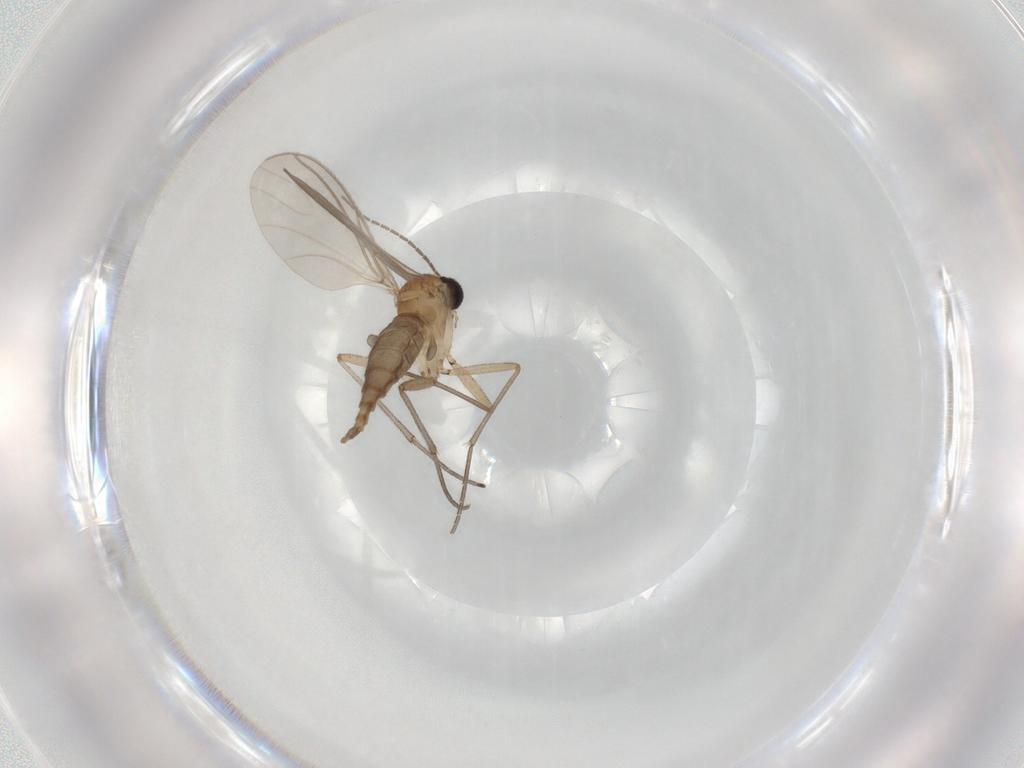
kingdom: Animalia
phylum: Arthropoda
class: Insecta
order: Diptera
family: Sciaridae
